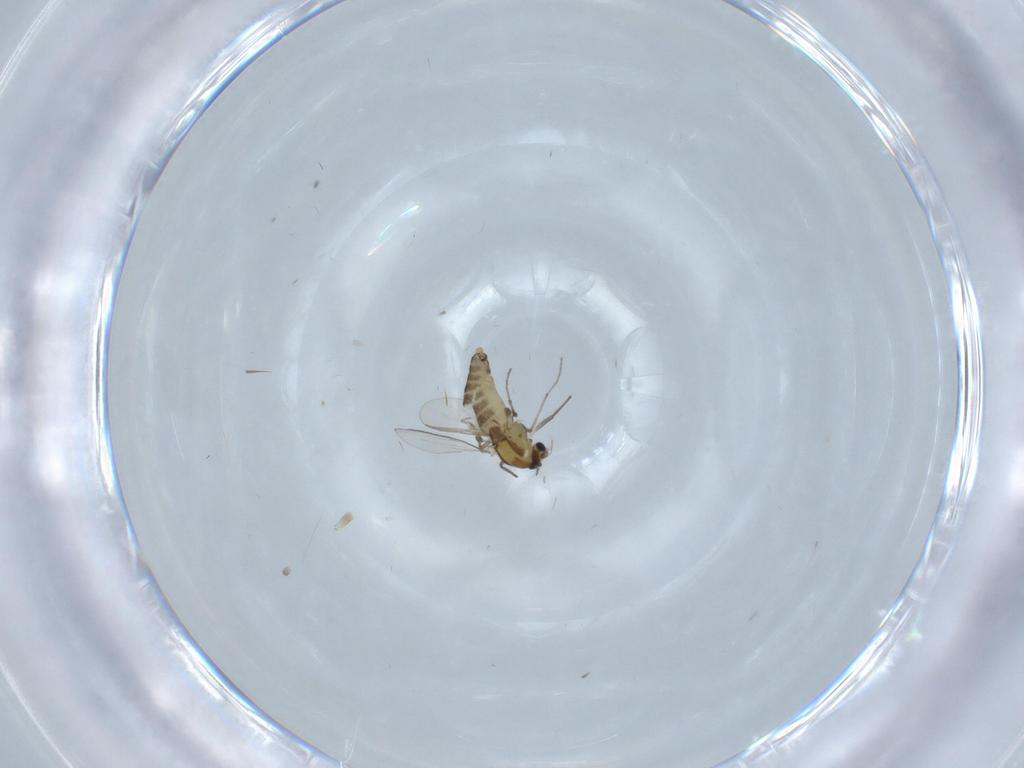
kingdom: Animalia
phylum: Arthropoda
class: Insecta
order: Diptera
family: Chironomidae
